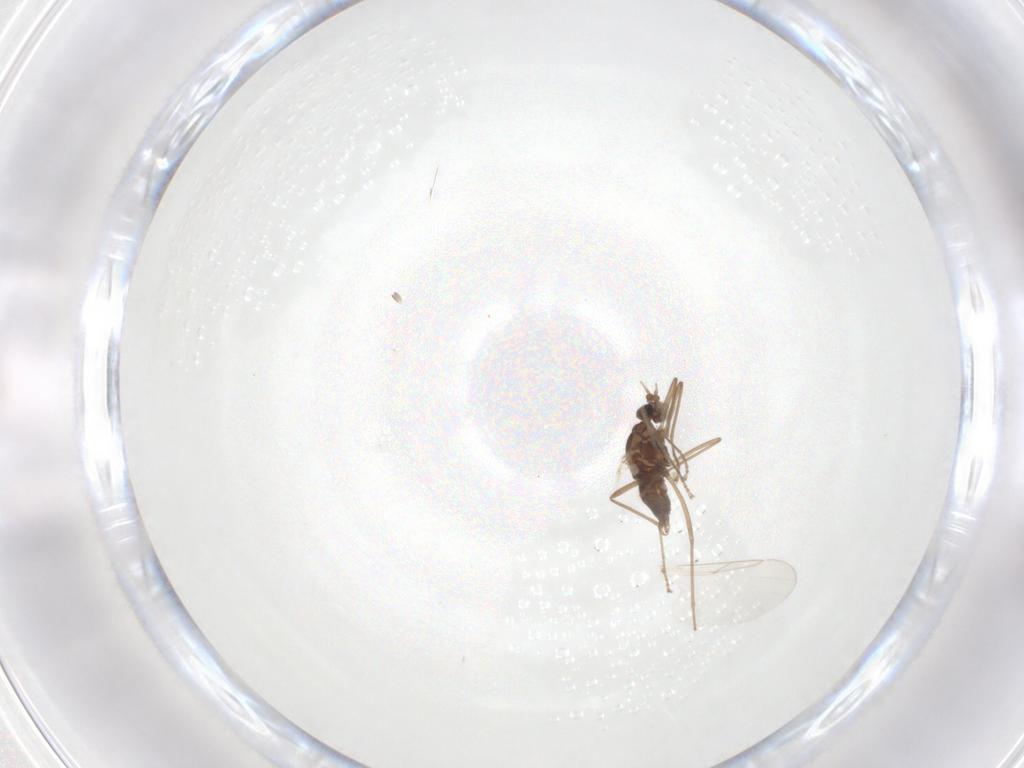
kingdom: Animalia
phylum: Arthropoda
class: Insecta
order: Diptera
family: Cecidomyiidae
